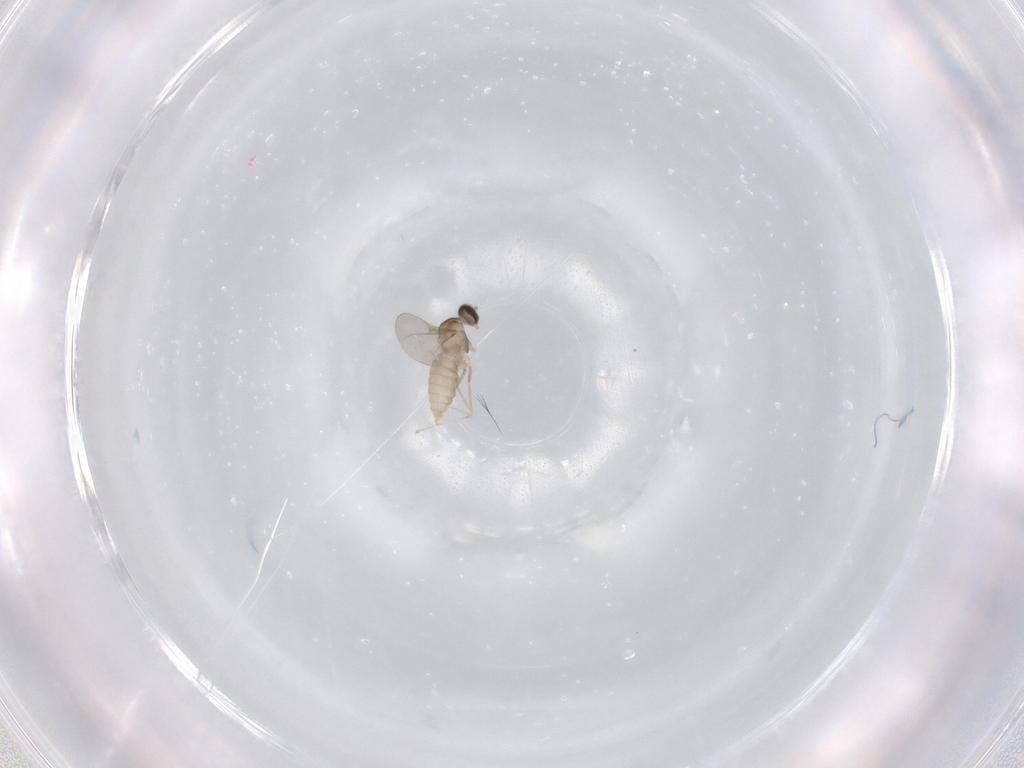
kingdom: Animalia
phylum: Arthropoda
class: Insecta
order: Diptera
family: Cecidomyiidae
